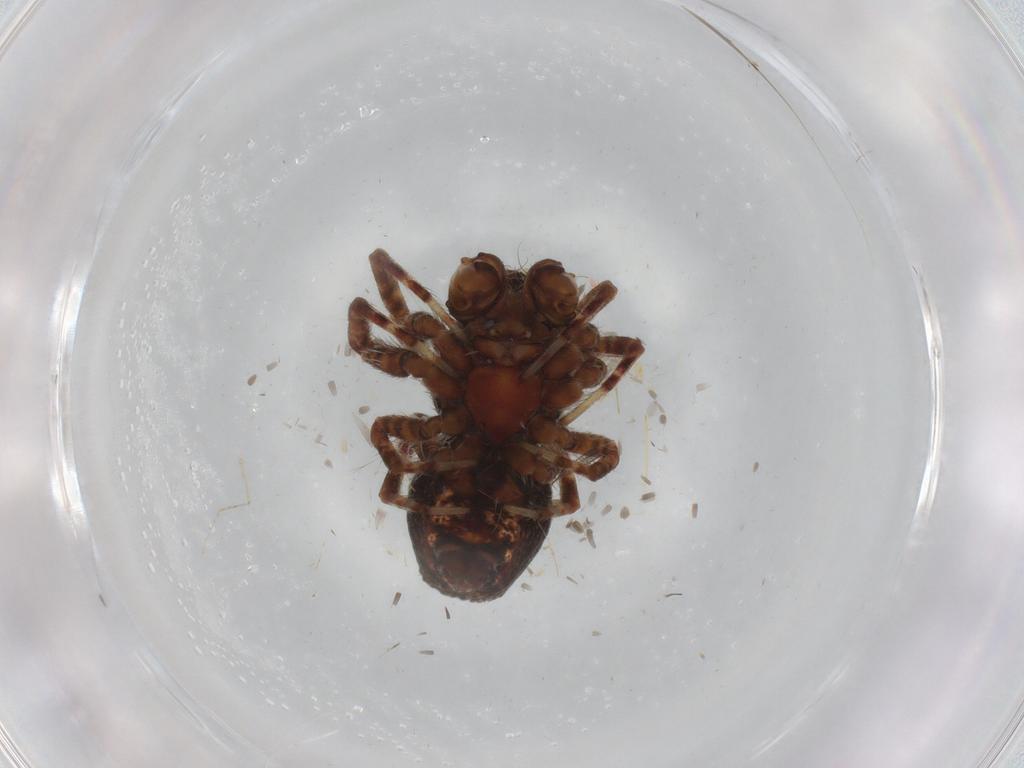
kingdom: Animalia
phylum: Arthropoda
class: Arachnida
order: Araneae
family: Araneidae
